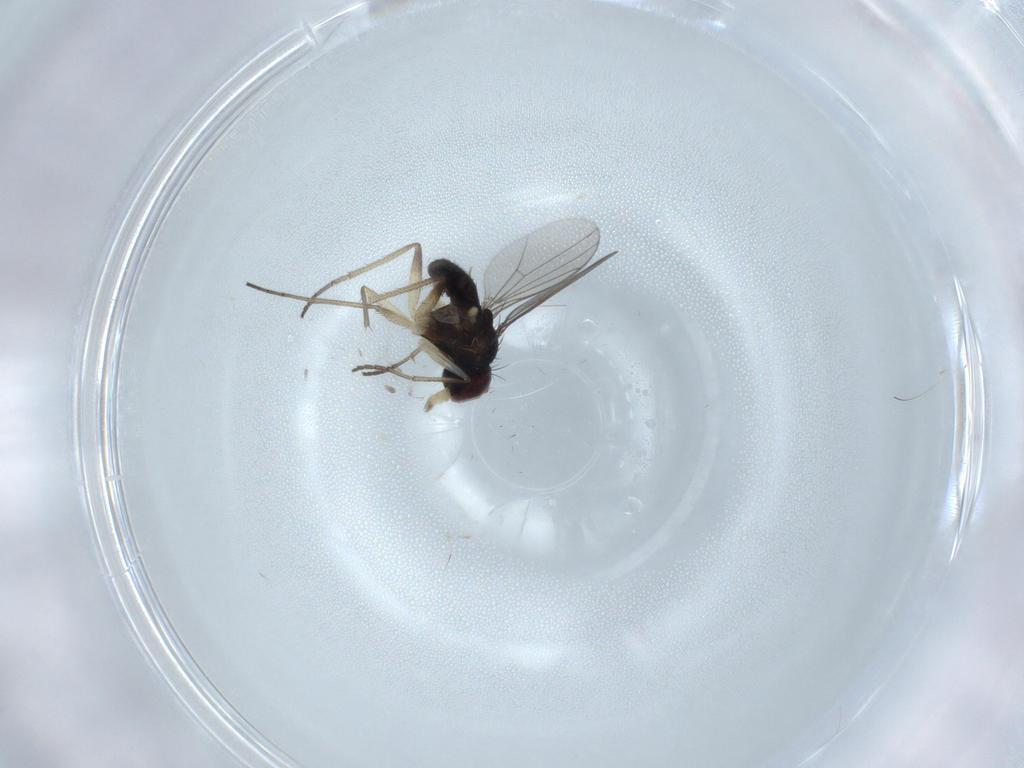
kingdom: Animalia
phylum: Arthropoda
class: Insecta
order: Diptera
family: Dolichopodidae
